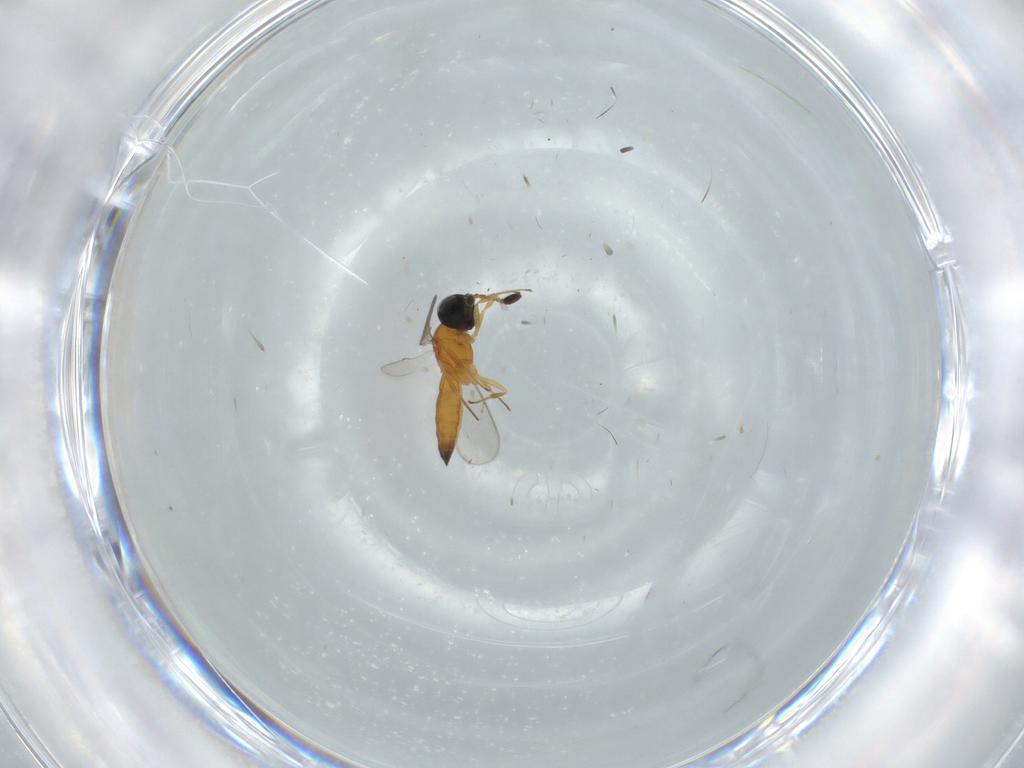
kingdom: Animalia
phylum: Arthropoda
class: Insecta
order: Hymenoptera
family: Scelionidae
